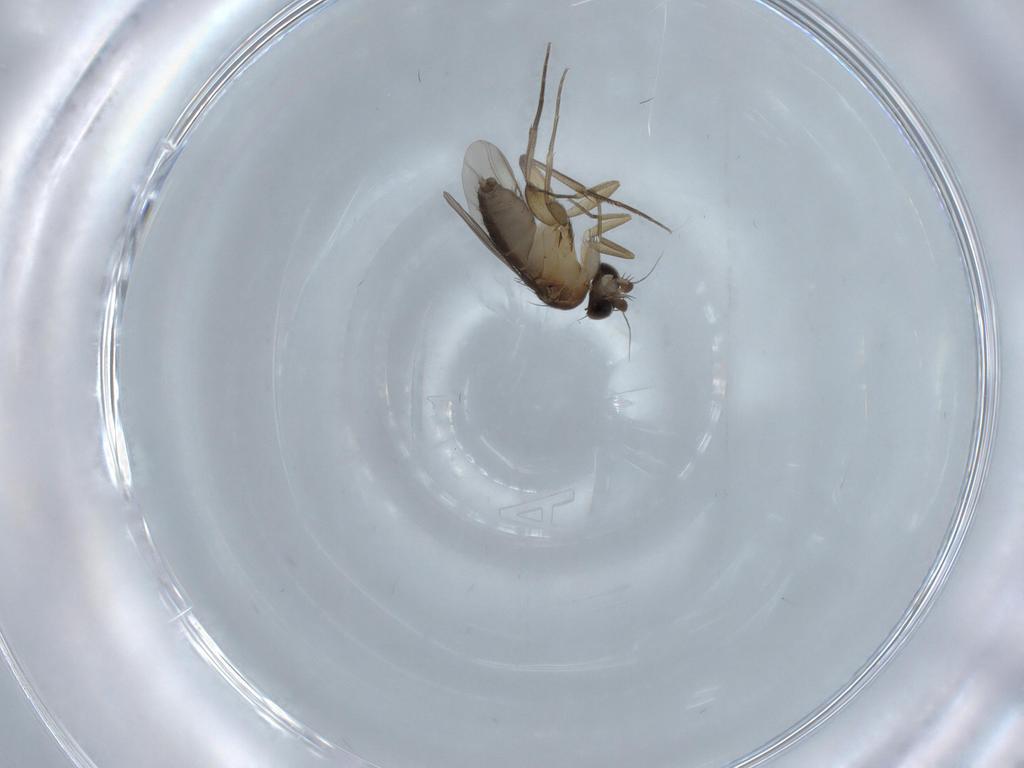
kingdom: Animalia
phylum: Arthropoda
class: Insecta
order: Diptera
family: Phoridae
